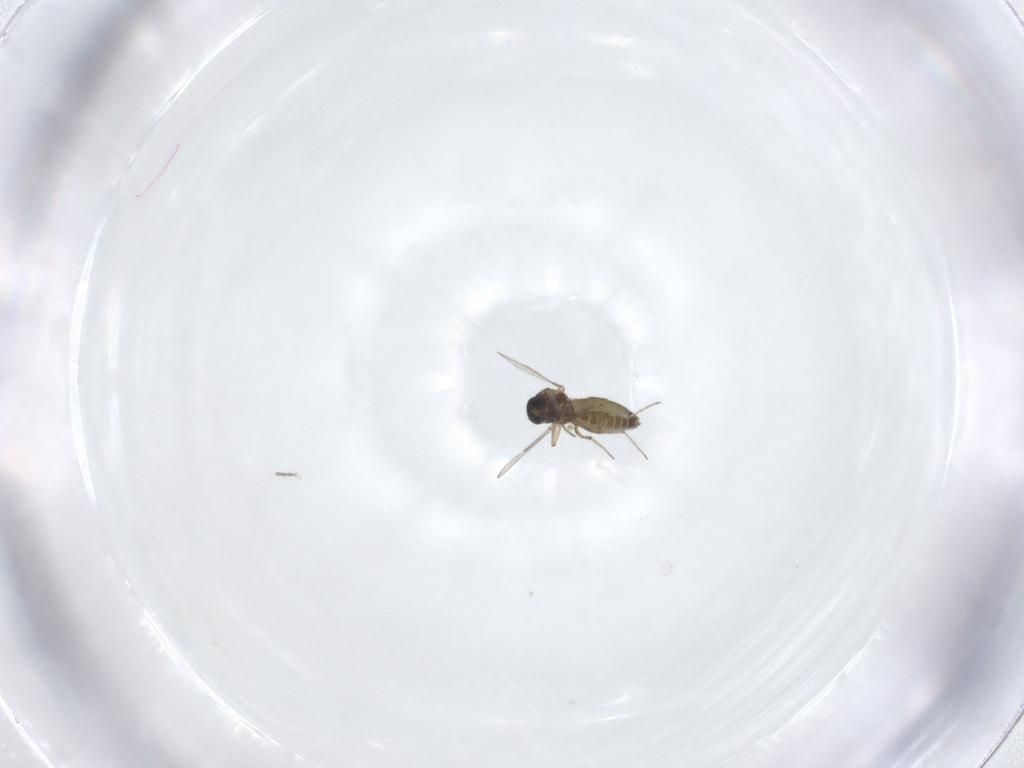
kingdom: Animalia
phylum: Arthropoda
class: Insecta
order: Diptera
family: Ceratopogonidae
